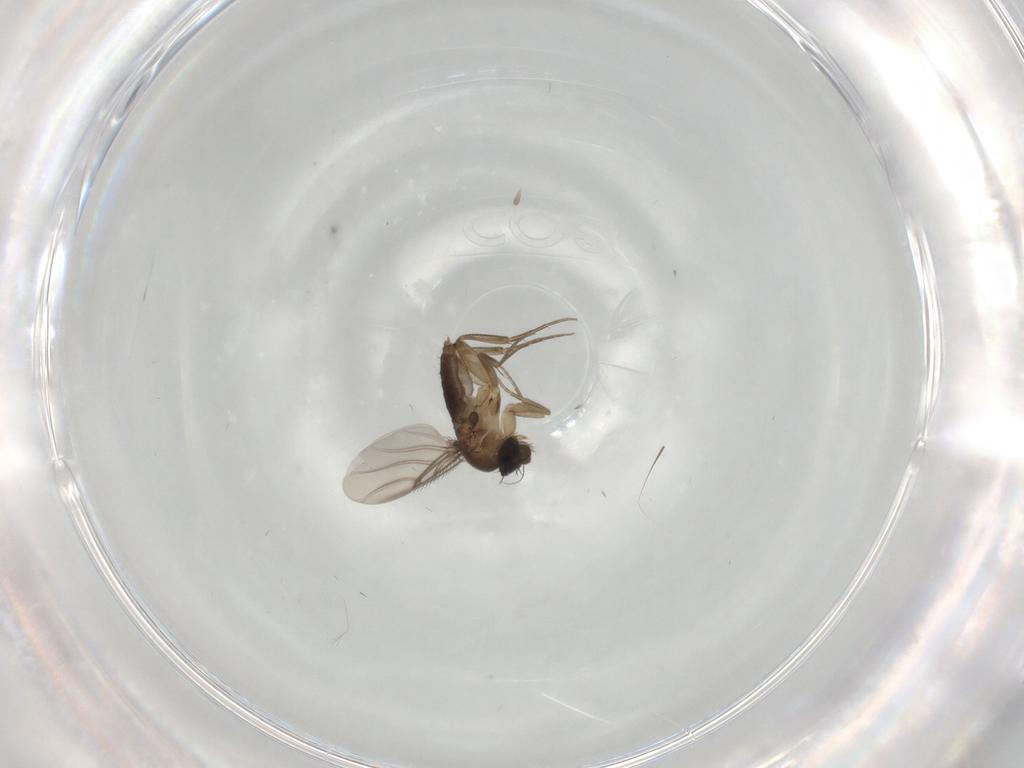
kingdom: Animalia
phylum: Arthropoda
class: Insecta
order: Diptera
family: Phoridae
